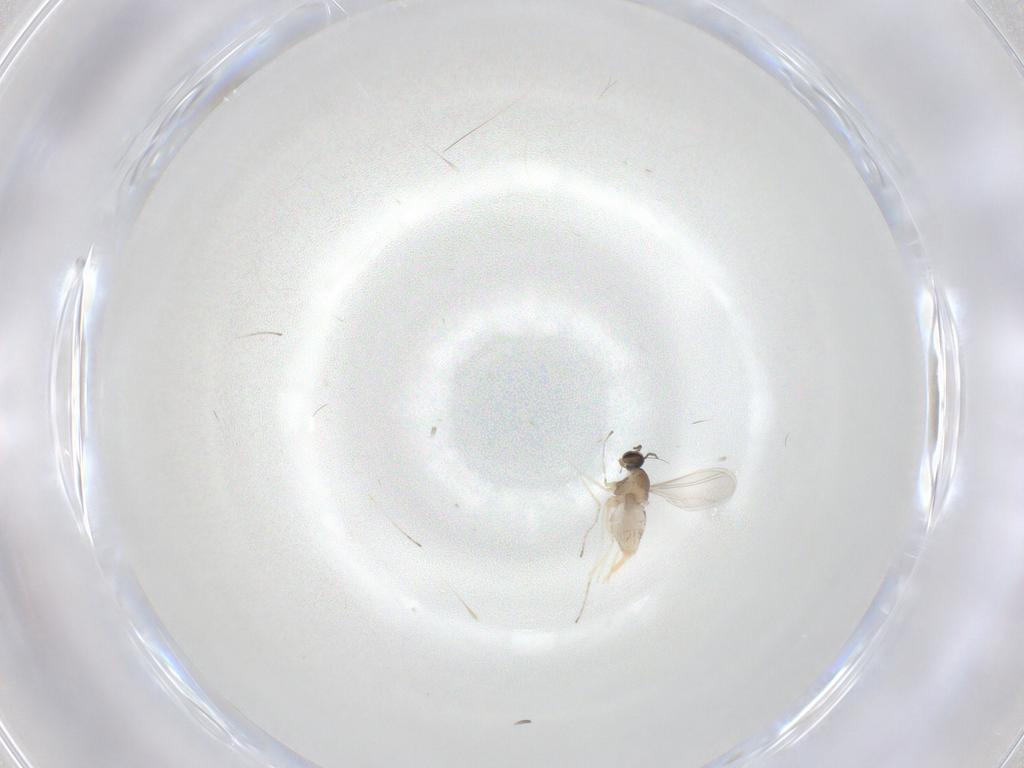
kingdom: Animalia
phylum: Arthropoda
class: Insecta
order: Diptera
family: Cecidomyiidae
